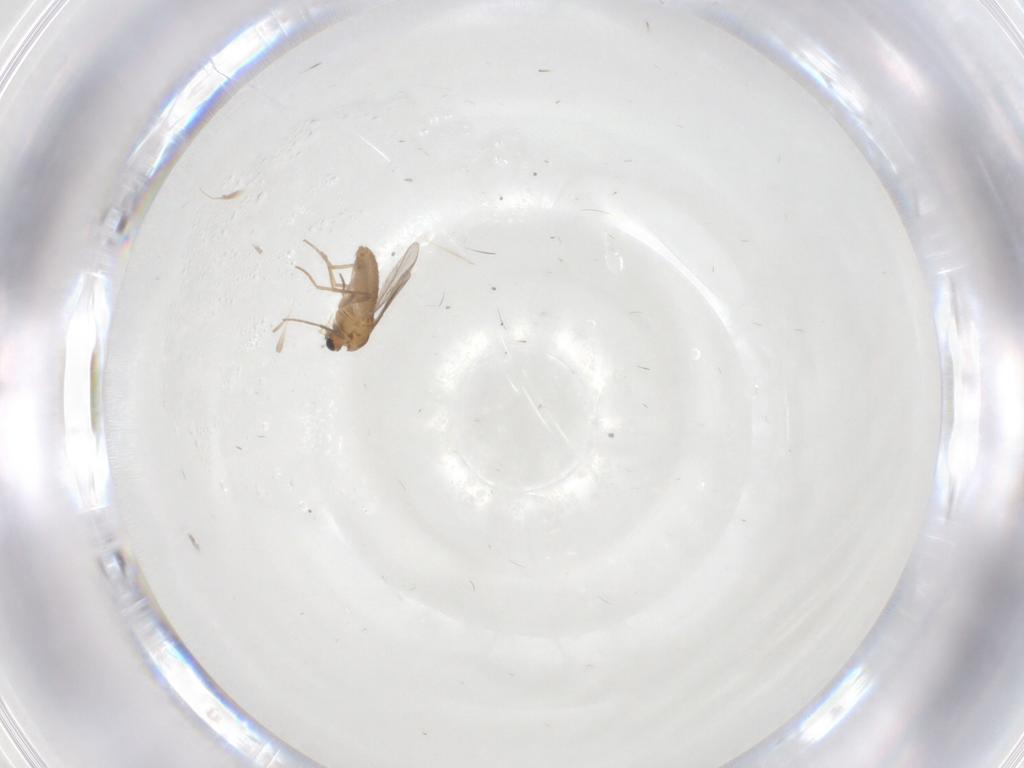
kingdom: Animalia
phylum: Arthropoda
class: Insecta
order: Diptera
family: Chironomidae
